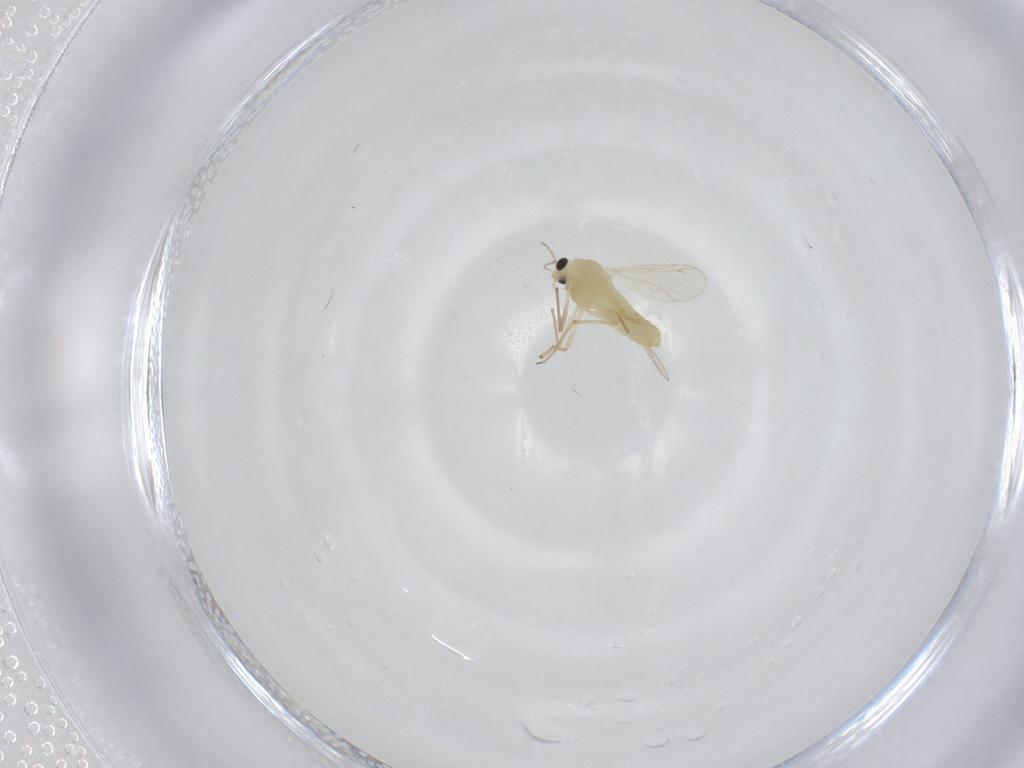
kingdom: Animalia
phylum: Arthropoda
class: Insecta
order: Diptera
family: Chironomidae
